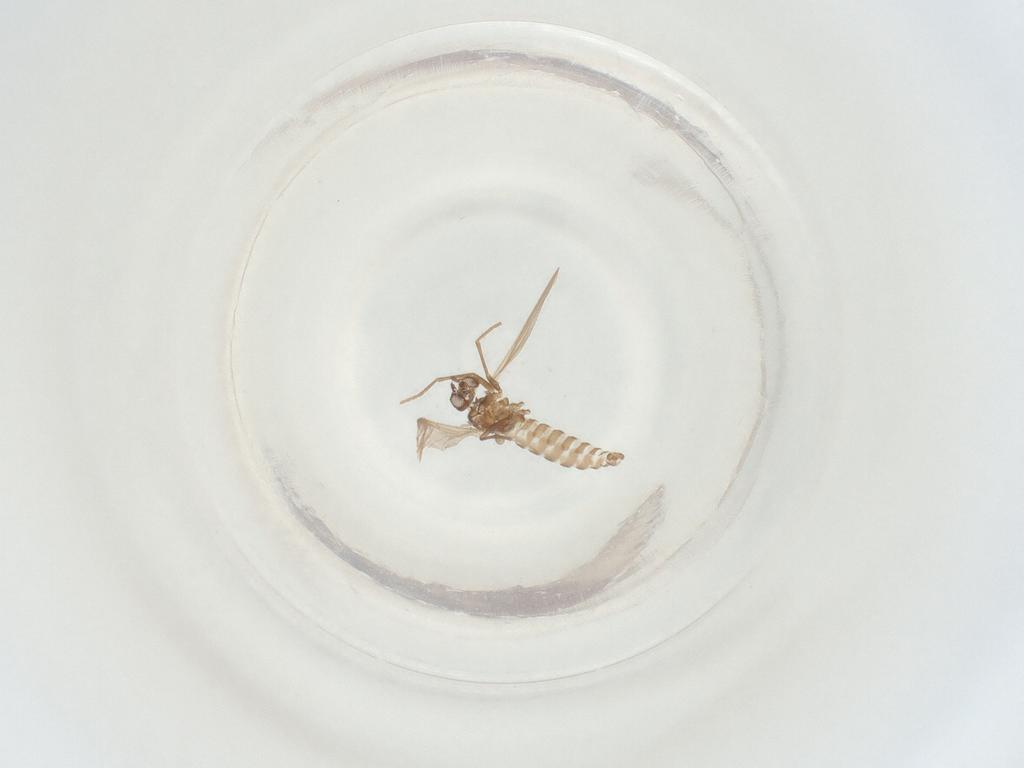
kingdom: Animalia
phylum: Arthropoda
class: Insecta
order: Diptera
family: Sciaridae
